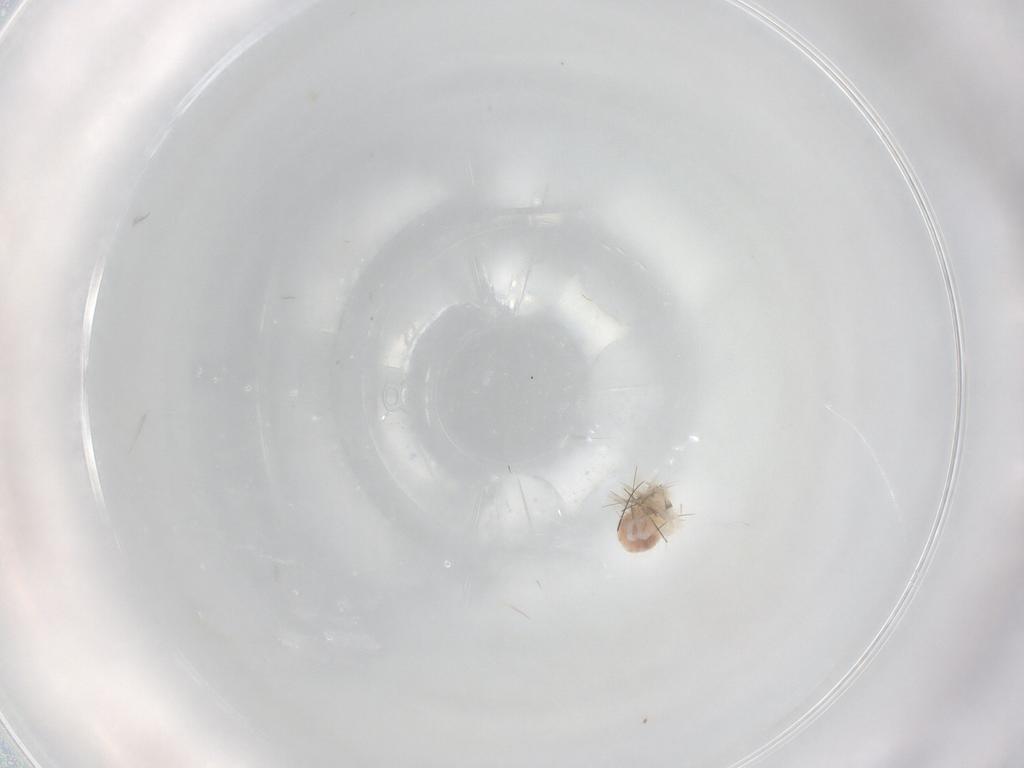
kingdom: Animalia
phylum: Arthropoda
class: Arachnida
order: Trombidiformes
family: Anystidae
